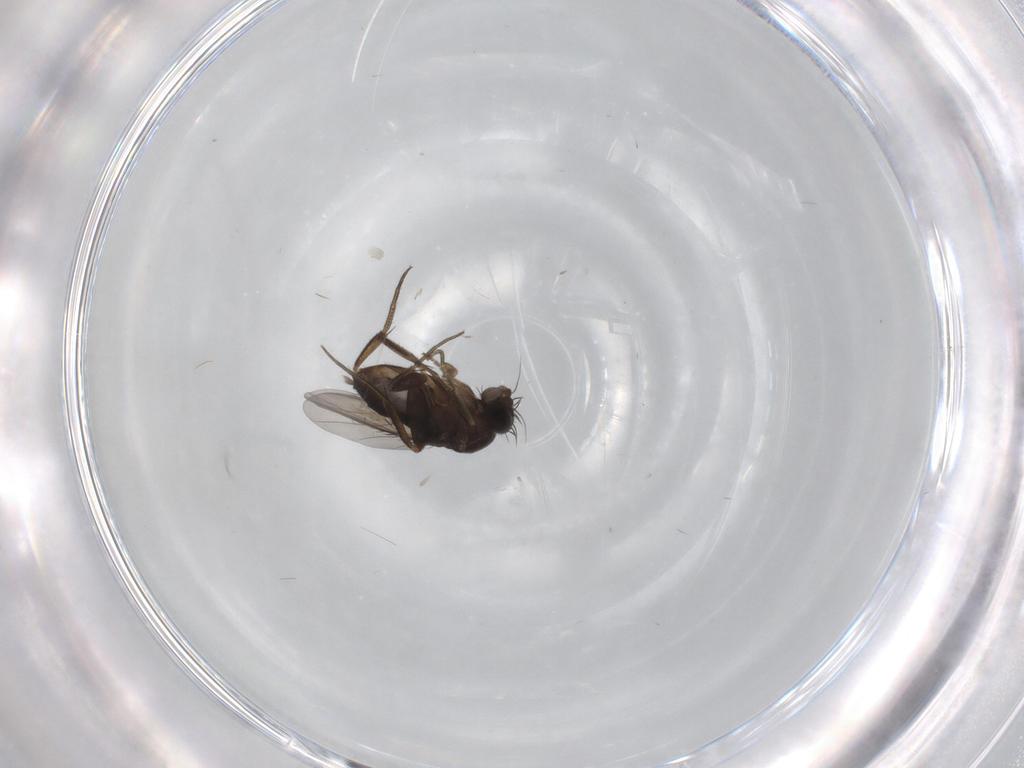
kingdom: Animalia
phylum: Arthropoda
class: Insecta
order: Diptera
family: Phoridae
